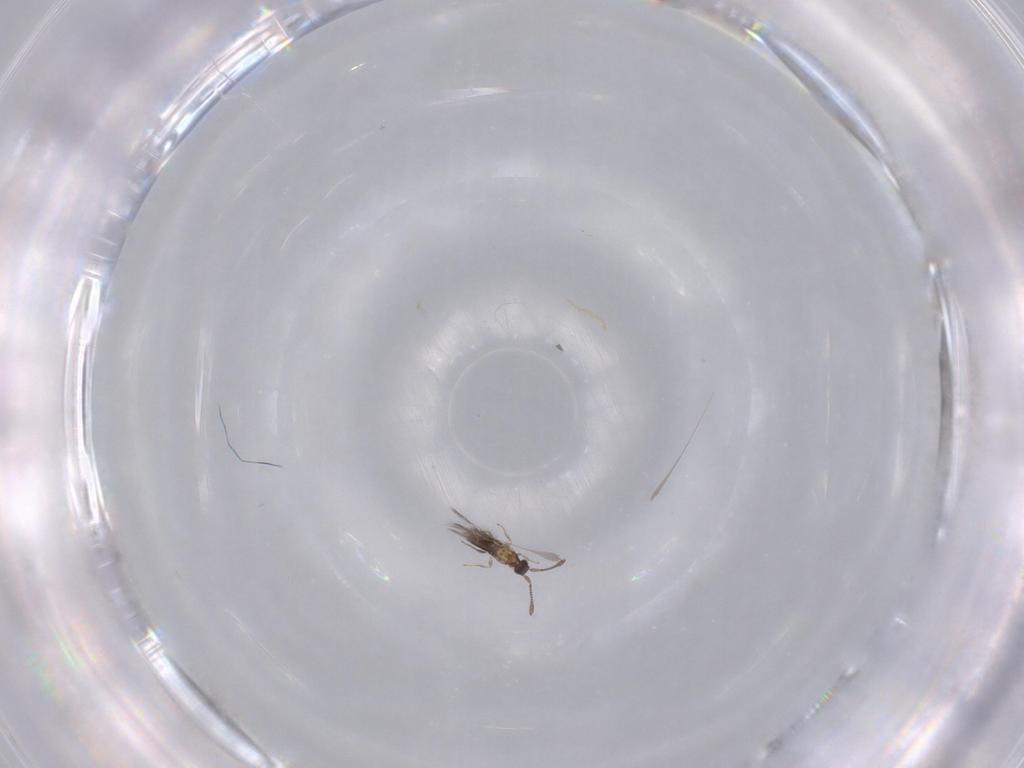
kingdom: Animalia
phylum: Arthropoda
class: Insecta
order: Hymenoptera
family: Mymaridae
